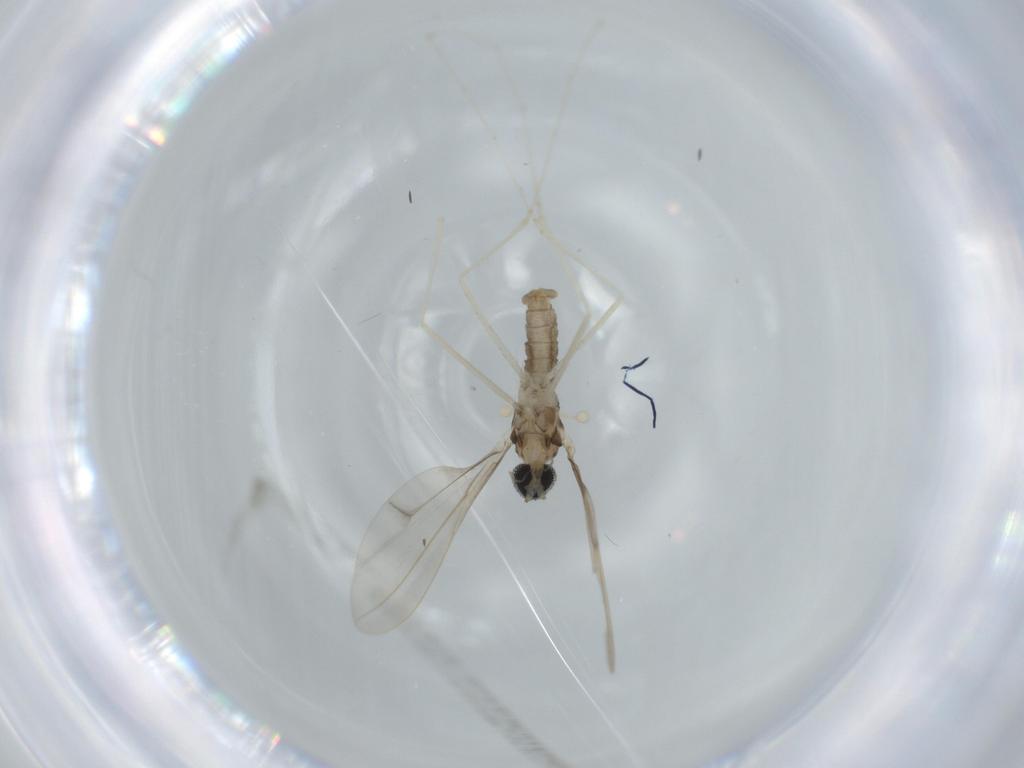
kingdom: Animalia
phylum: Arthropoda
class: Insecta
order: Diptera
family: Cecidomyiidae
